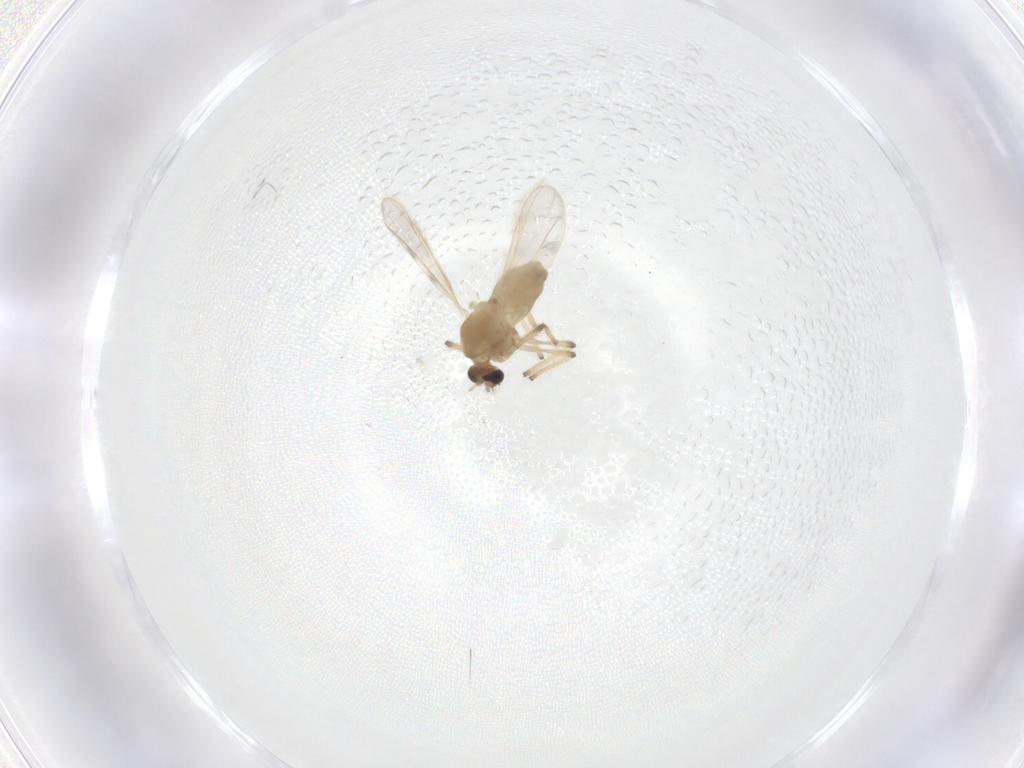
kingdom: Animalia
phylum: Arthropoda
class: Insecta
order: Diptera
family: Chironomidae
